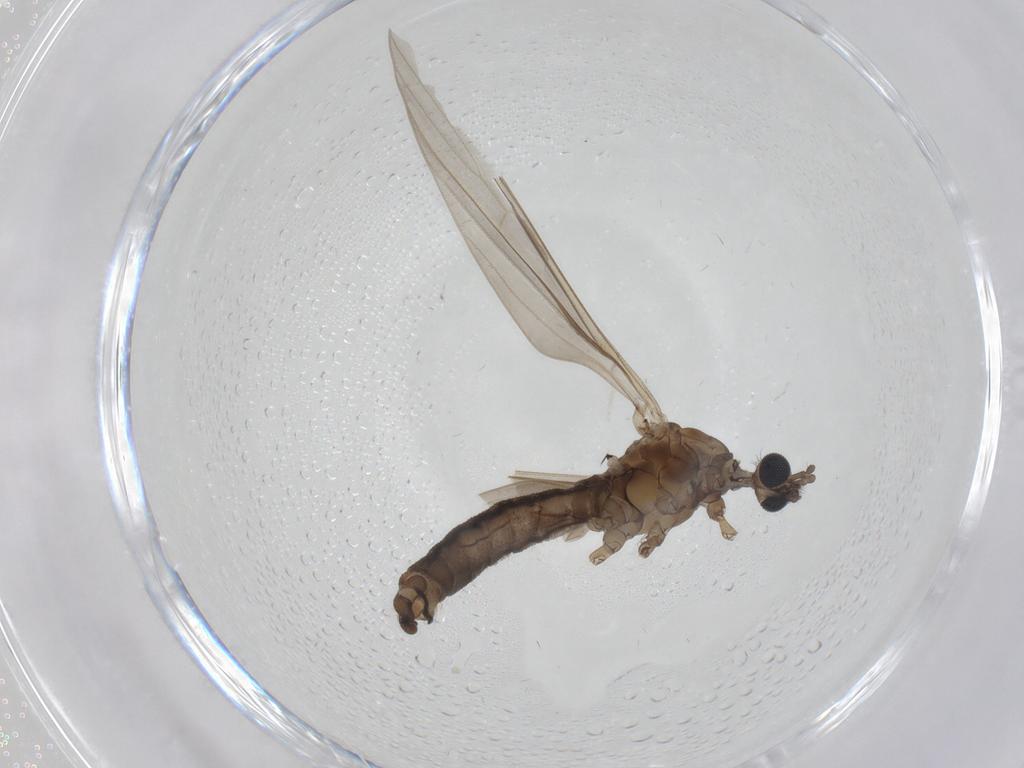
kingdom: Animalia
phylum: Arthropoda
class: Insecta
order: Diptera
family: Limoniidae
